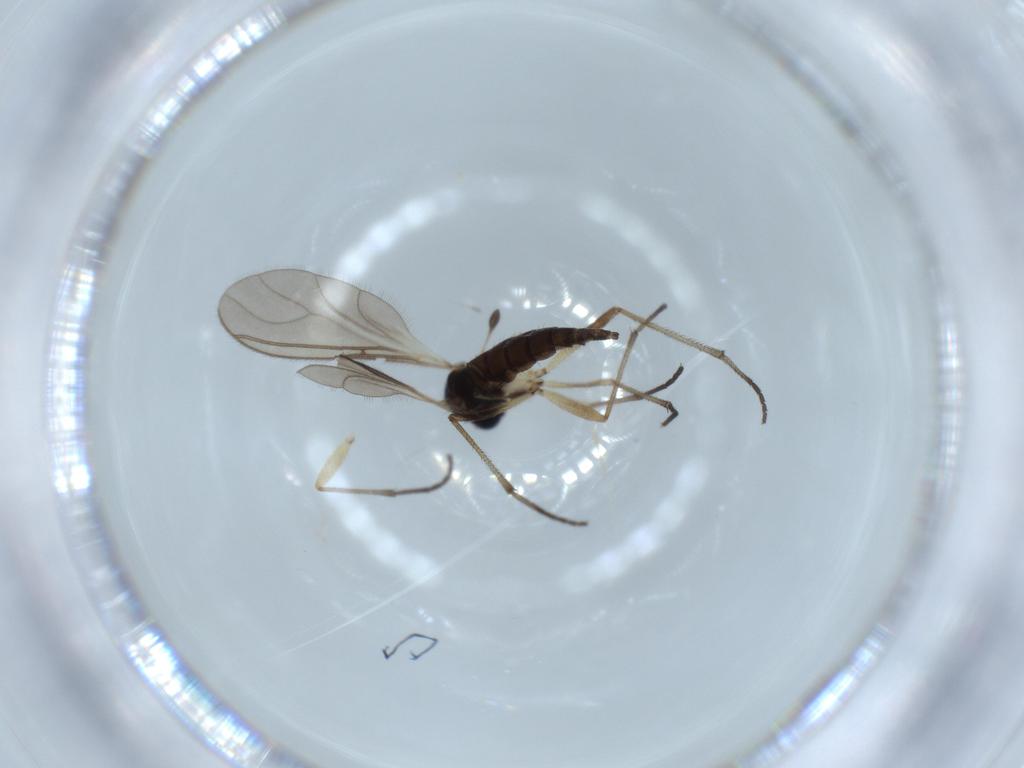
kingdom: Animalia
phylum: Arthropoda
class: Insecta
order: Diptera
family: Sciaridae
